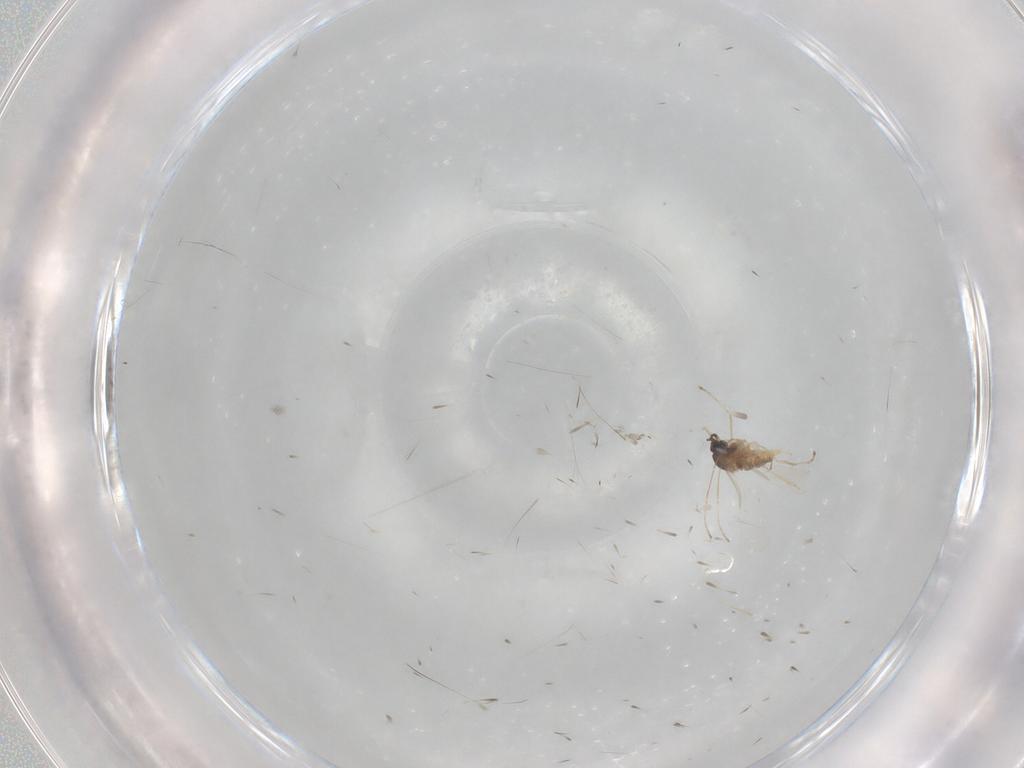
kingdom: Animalia
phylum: Arthropoda
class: Insecta
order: Diptera
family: Muscidae
